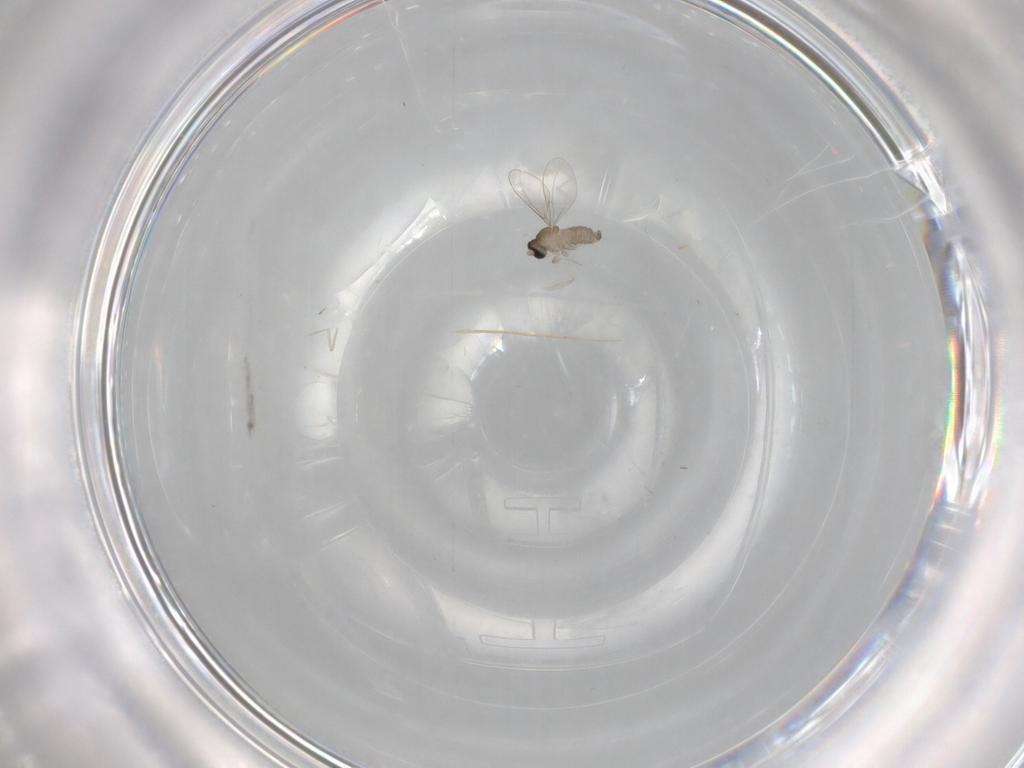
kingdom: Animalia
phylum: Arthropoda
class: Insecta
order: Diptera
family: Cecidomyiidae
